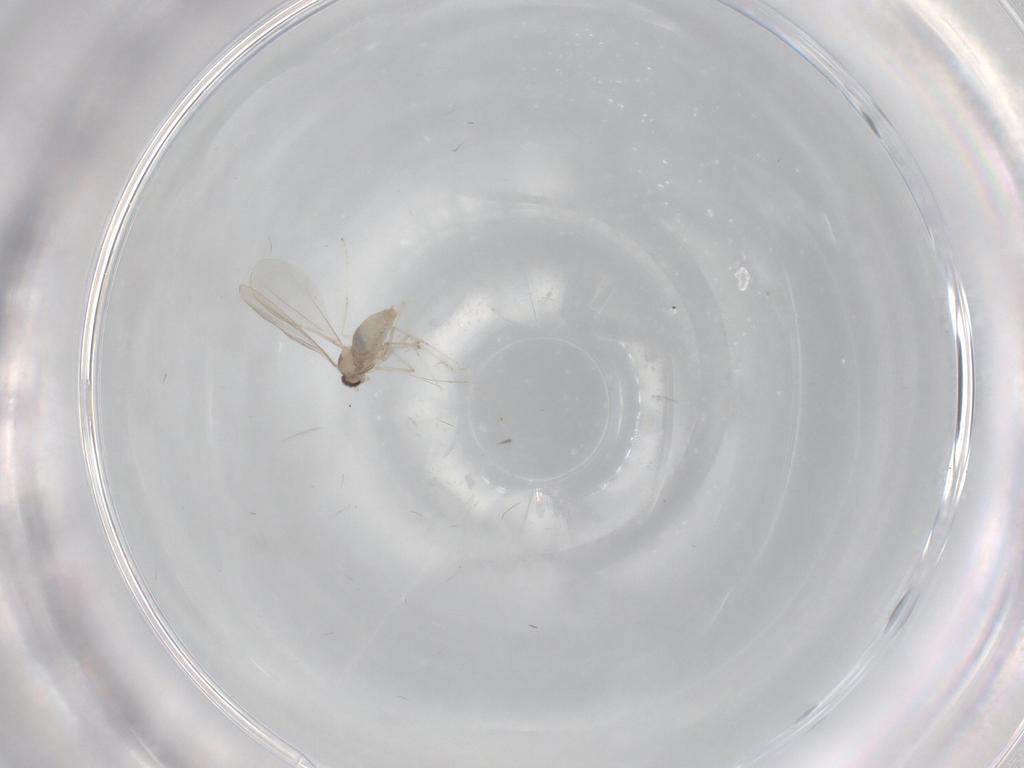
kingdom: Animalia
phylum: Arthropoda
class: Insecta
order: Diptera
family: Cecidomyiidae
